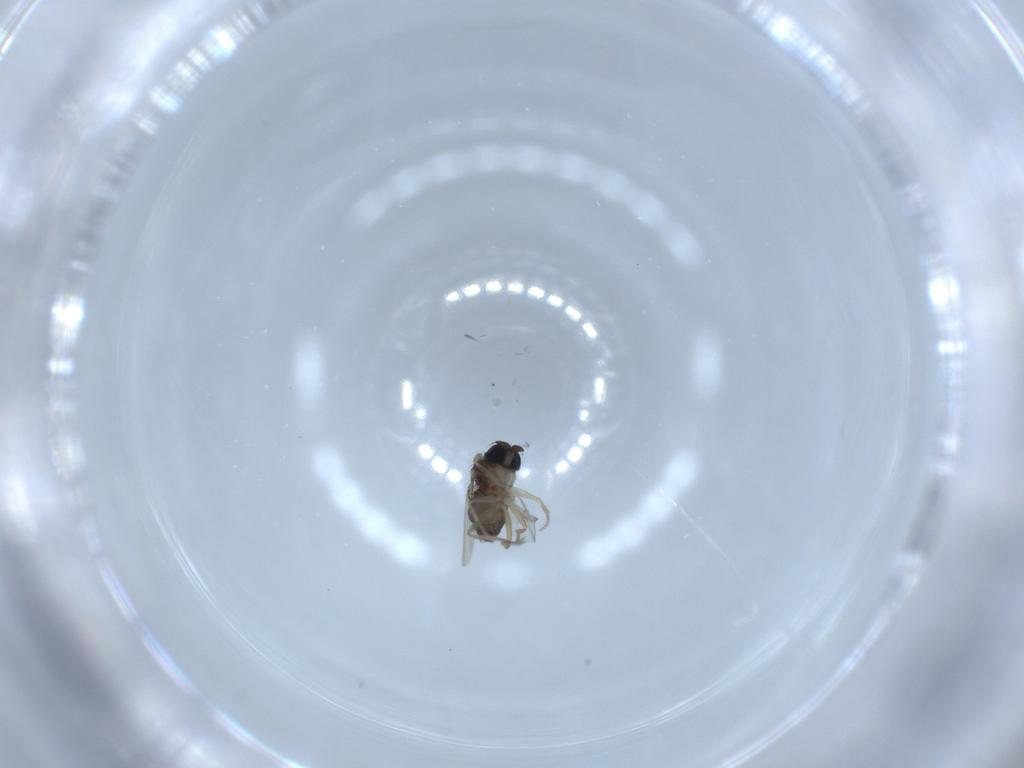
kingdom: Animalia
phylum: Arthropoda
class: Insecta
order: Diptera
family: Phoridae
